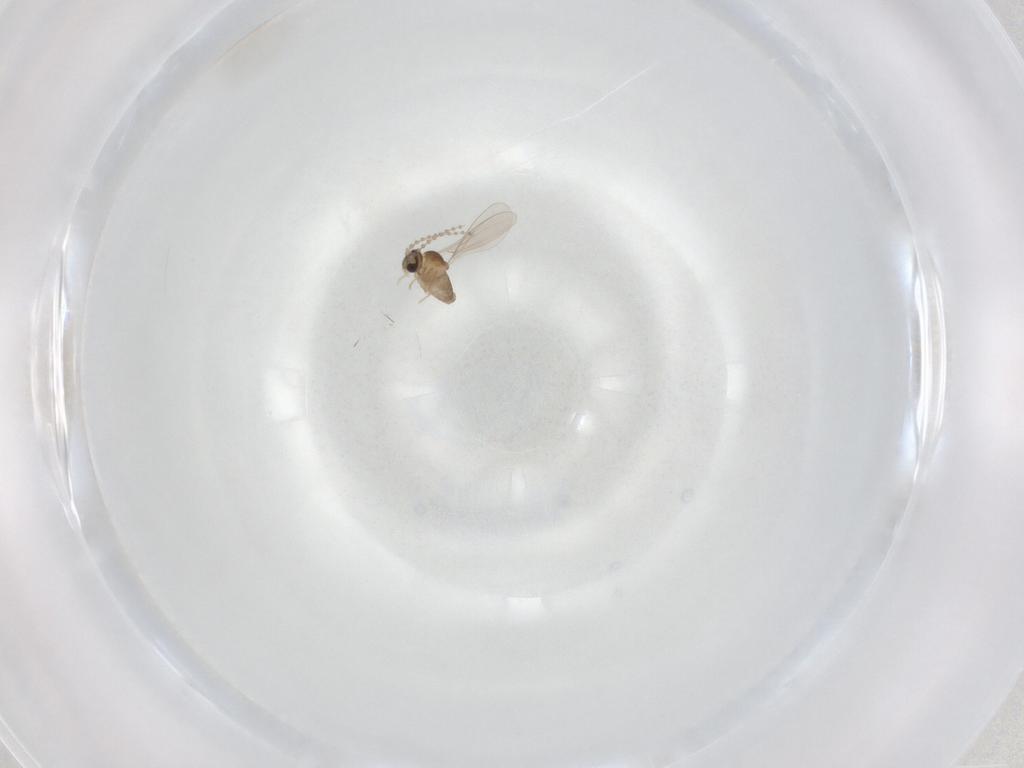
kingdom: Animalia
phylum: Arthropoda
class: Insecta
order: Diptera
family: Cecidomyiidae
